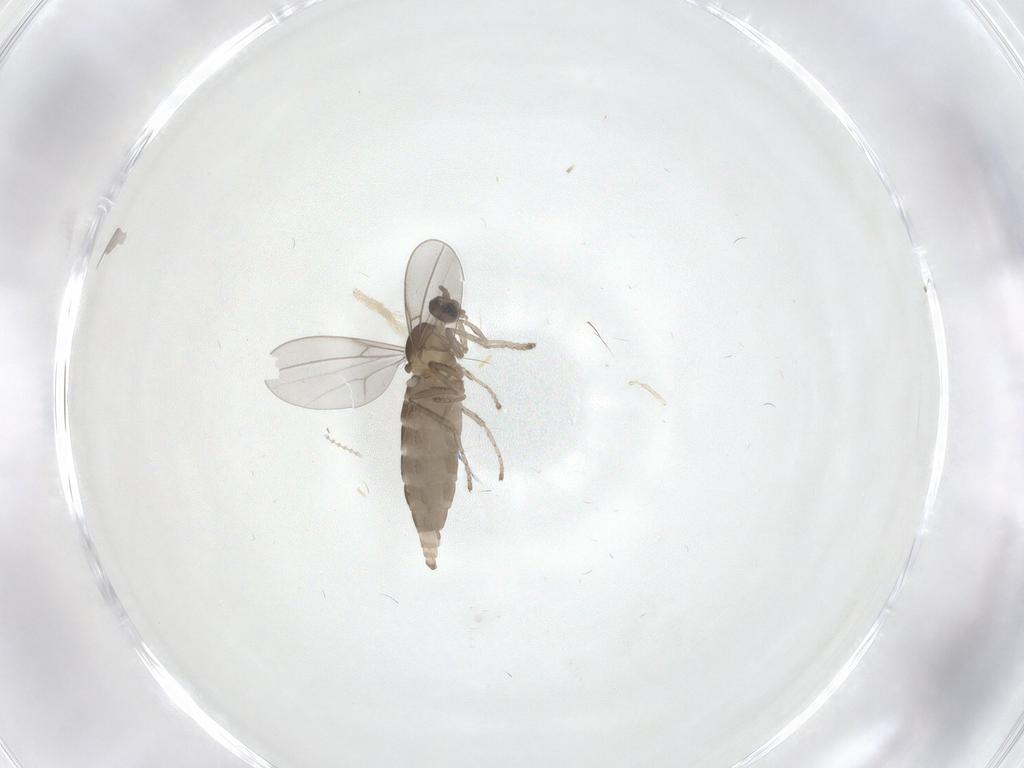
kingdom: Animalia
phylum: Arthropoda
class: Insecta
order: Diptera
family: Cecidomyiidae
